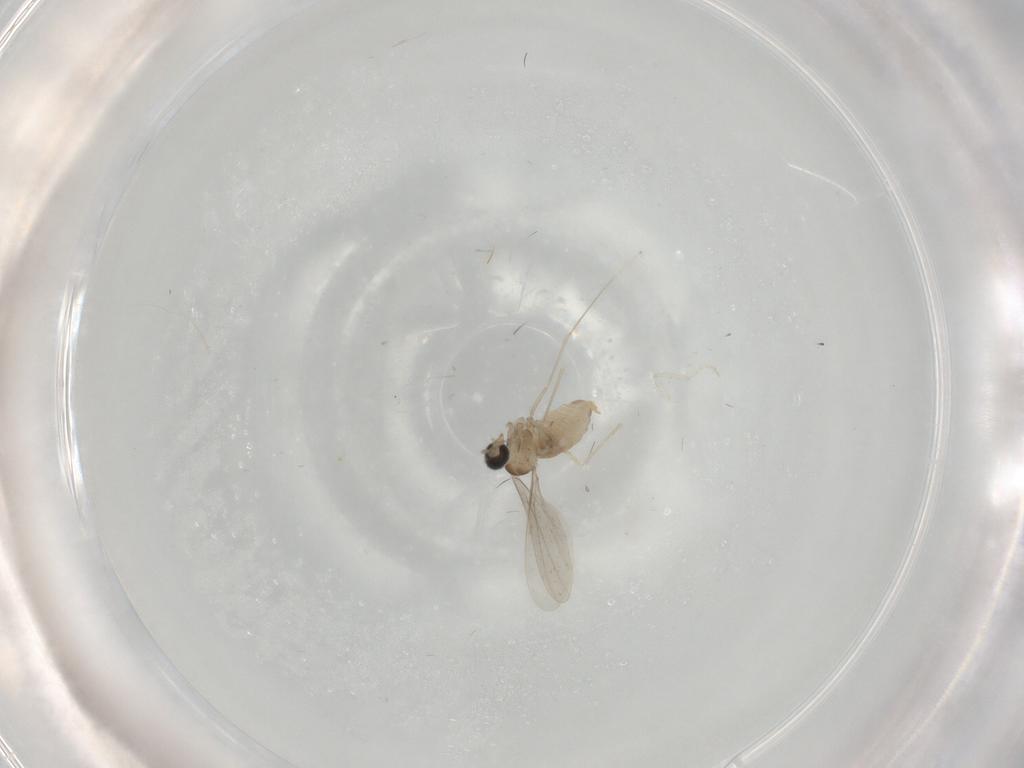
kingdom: Animalia
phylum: Arthropoda
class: Insecta
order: Diptera
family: Cecidomyiidae
